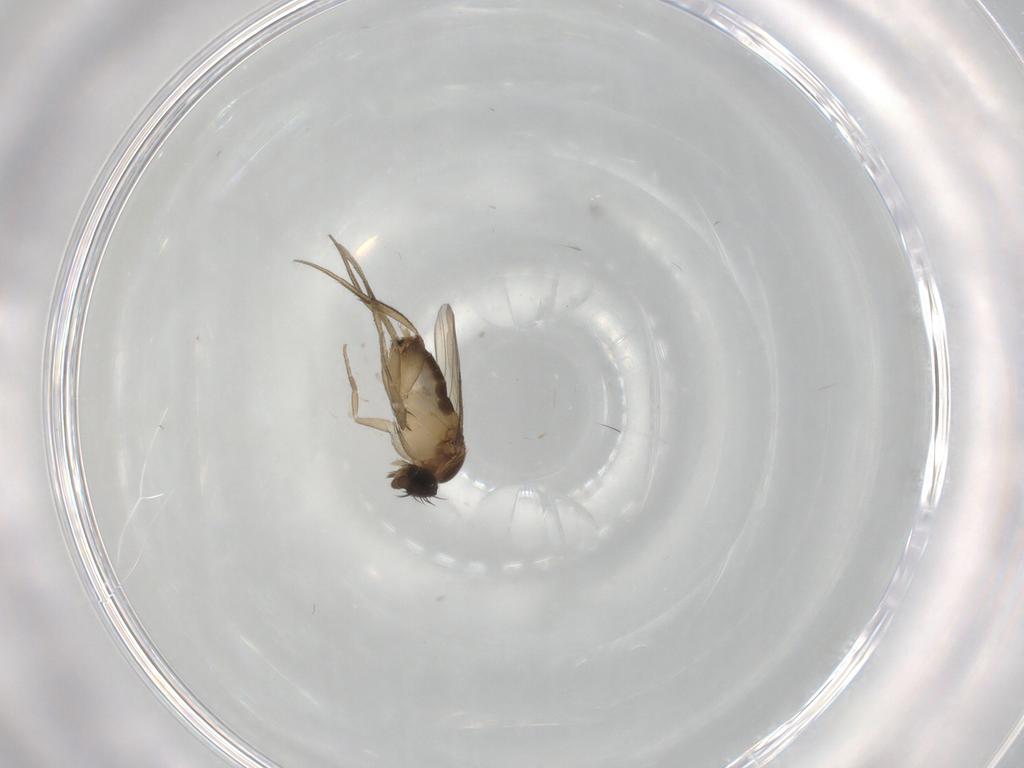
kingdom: Animalia
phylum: Arthropoda
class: Insecta
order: Diptera
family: Phoridae
